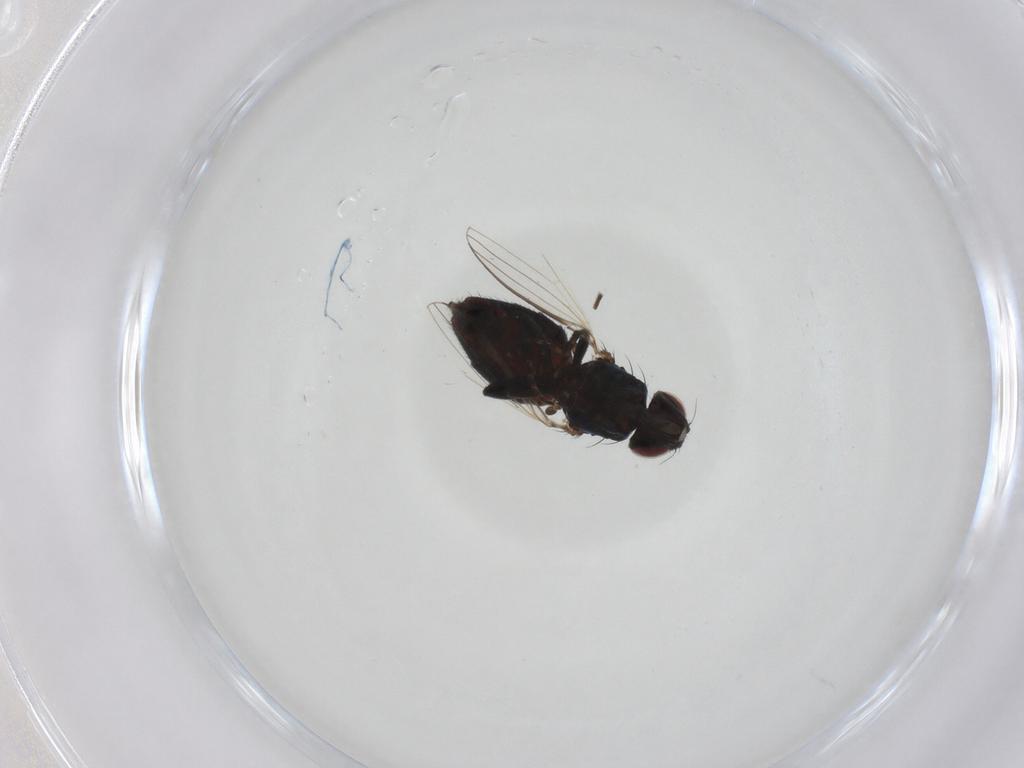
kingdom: Animalia
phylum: Arthropoda
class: Insecta
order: Diptera
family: Milichiidae
